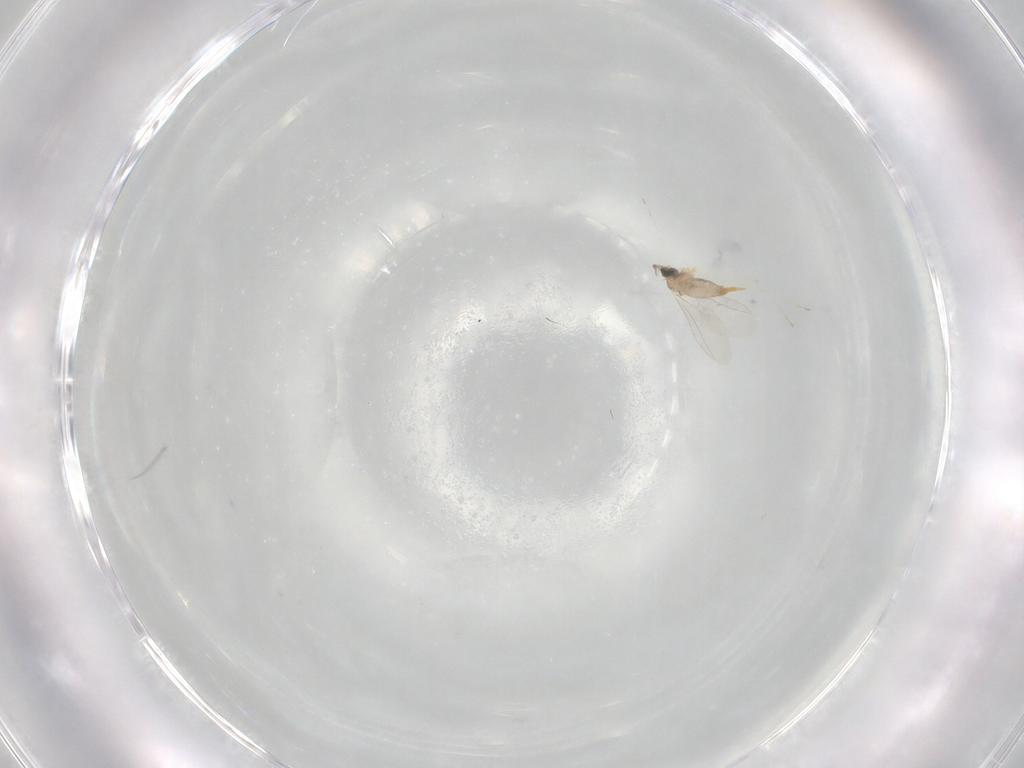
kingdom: Animalia
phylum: Arthropoda
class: Insecta
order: Diptera
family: Cecidomyiidae
